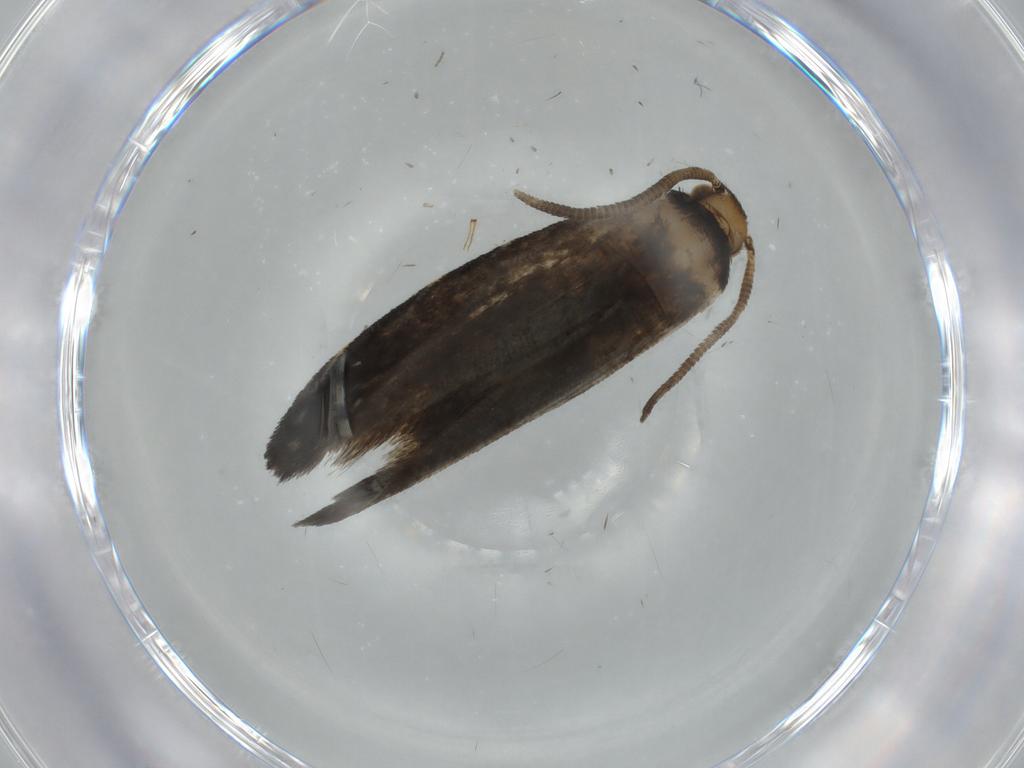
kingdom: Animalia
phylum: Arthropoda
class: Insecta
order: Lepidoptera
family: Dryadaulidae
